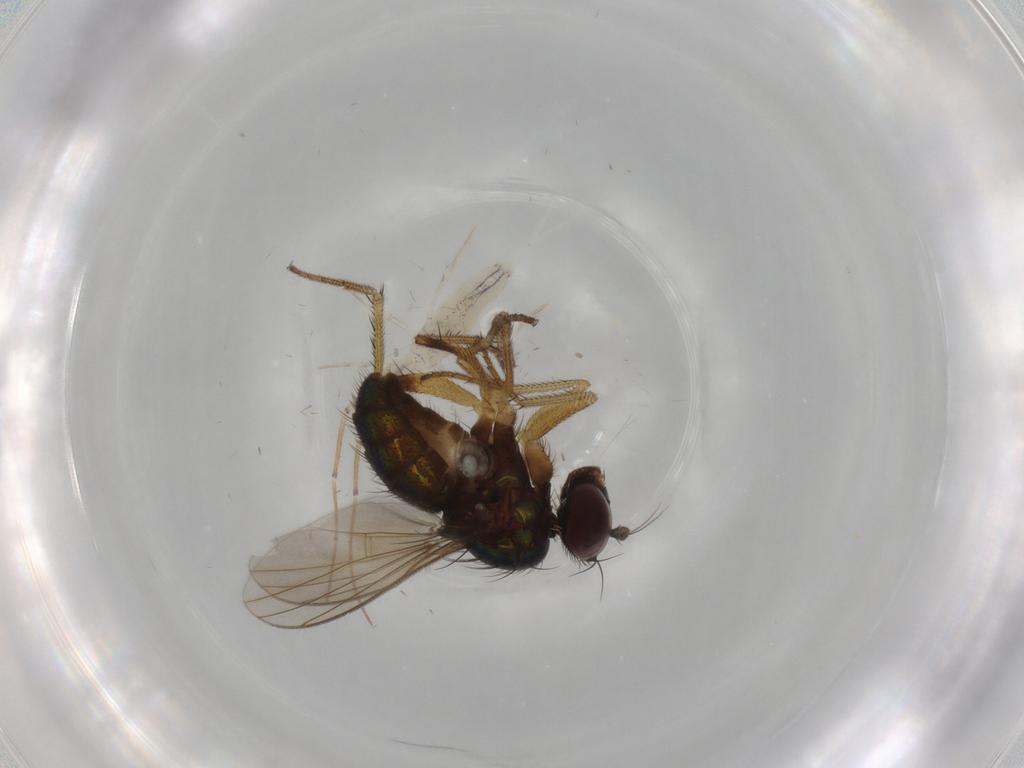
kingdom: Animalia
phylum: Arthropoda
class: Insecta
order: Diptera
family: Dolichopodidae
